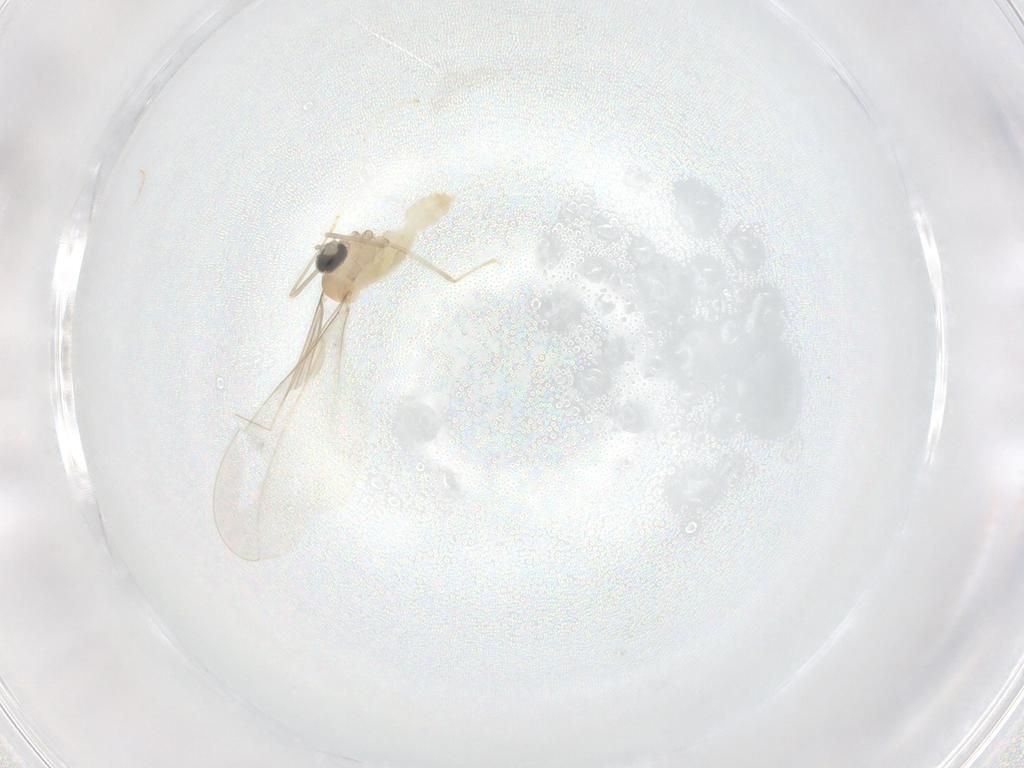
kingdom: Animalia
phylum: Arthropoda
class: Insecta
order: Diptera
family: Cecidomyiidae
